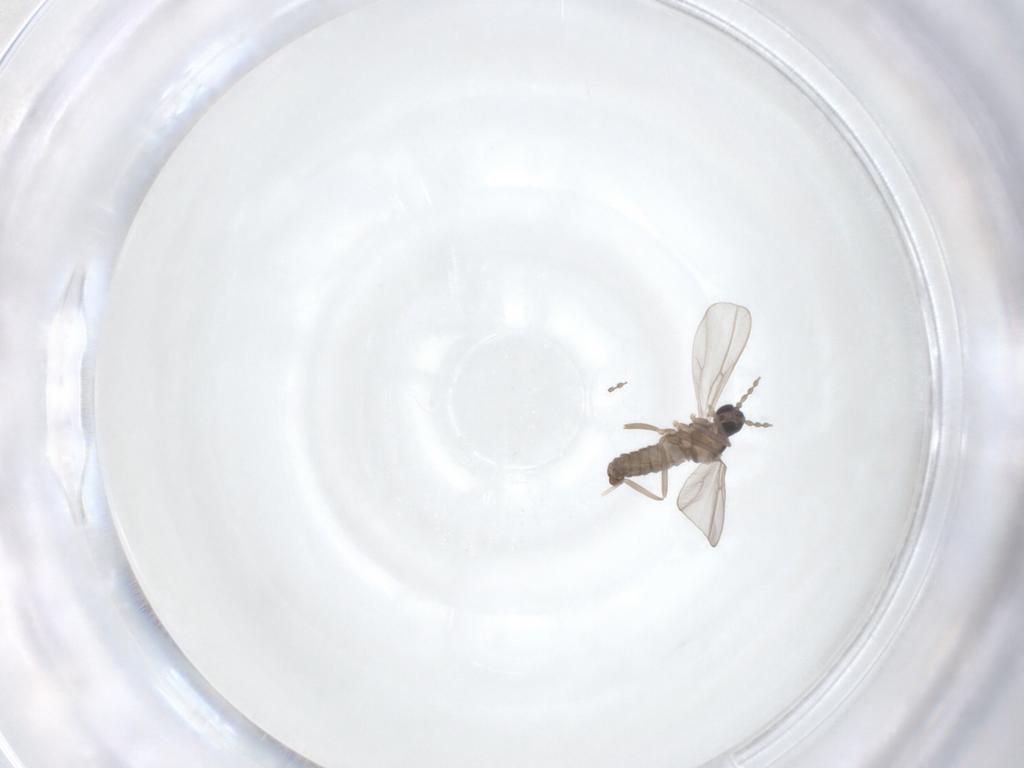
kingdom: Animalia
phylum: Arthropoda
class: Insecta
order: Diptera
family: Cecidomyiidae
